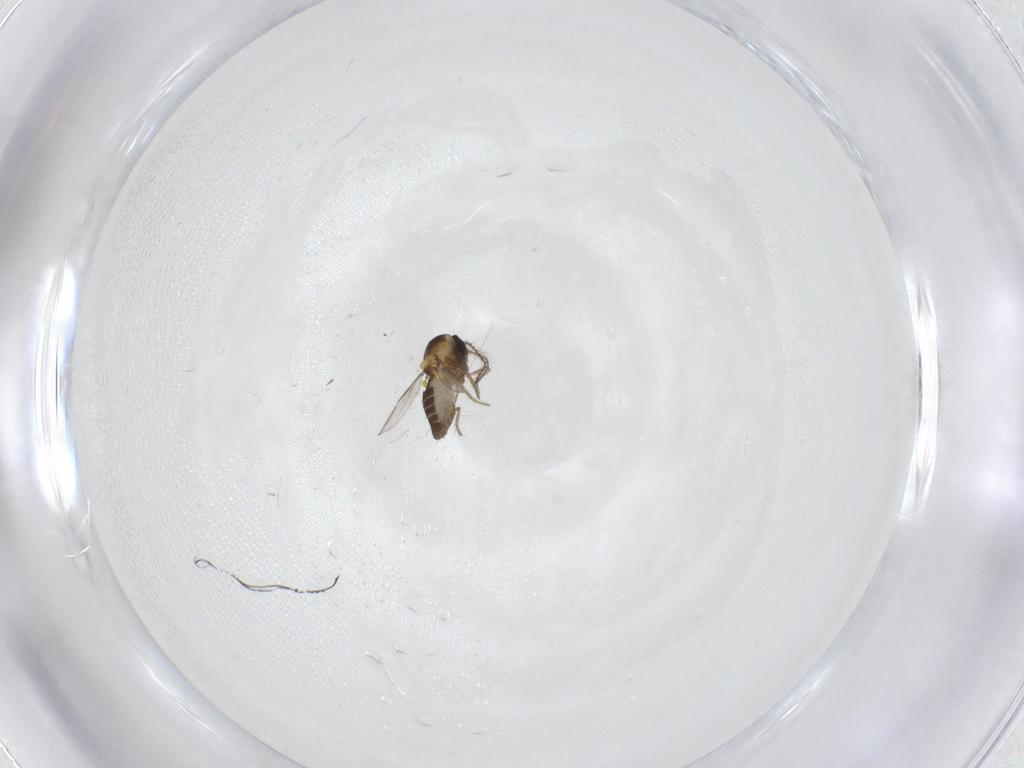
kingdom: Animalia
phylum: Arthropoda
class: Insecta
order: Diptera
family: Ceratopogonidae
